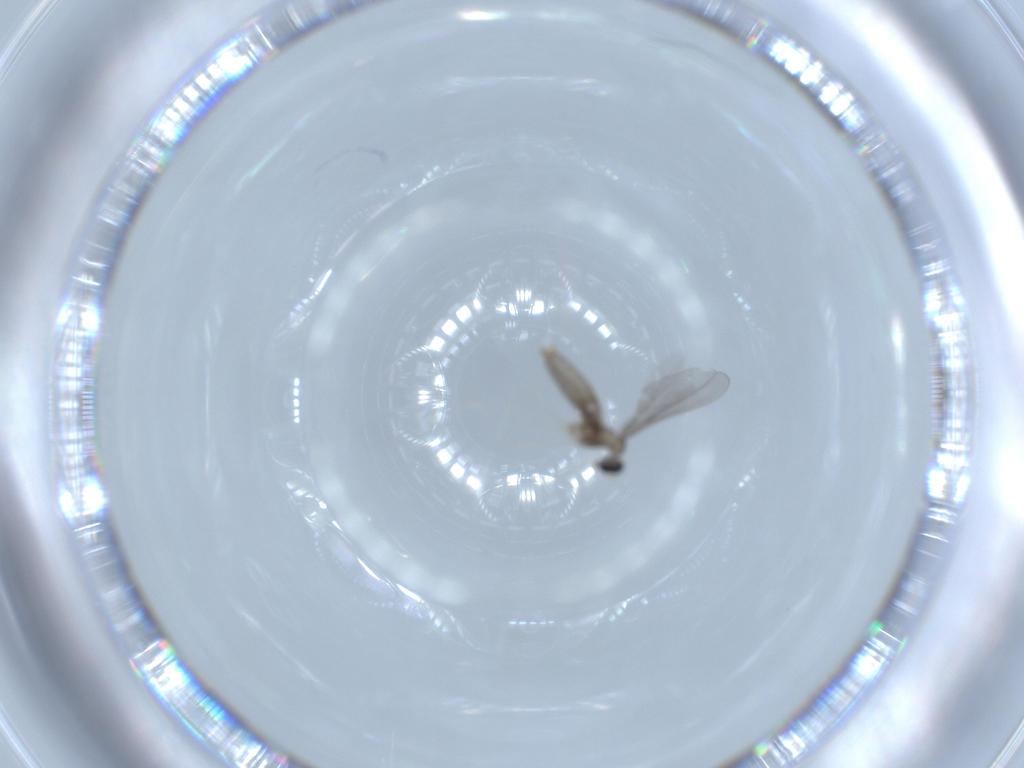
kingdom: Animalia
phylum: Arthropoda
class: Insecta
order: Diptera
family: Cecidomyiidae
